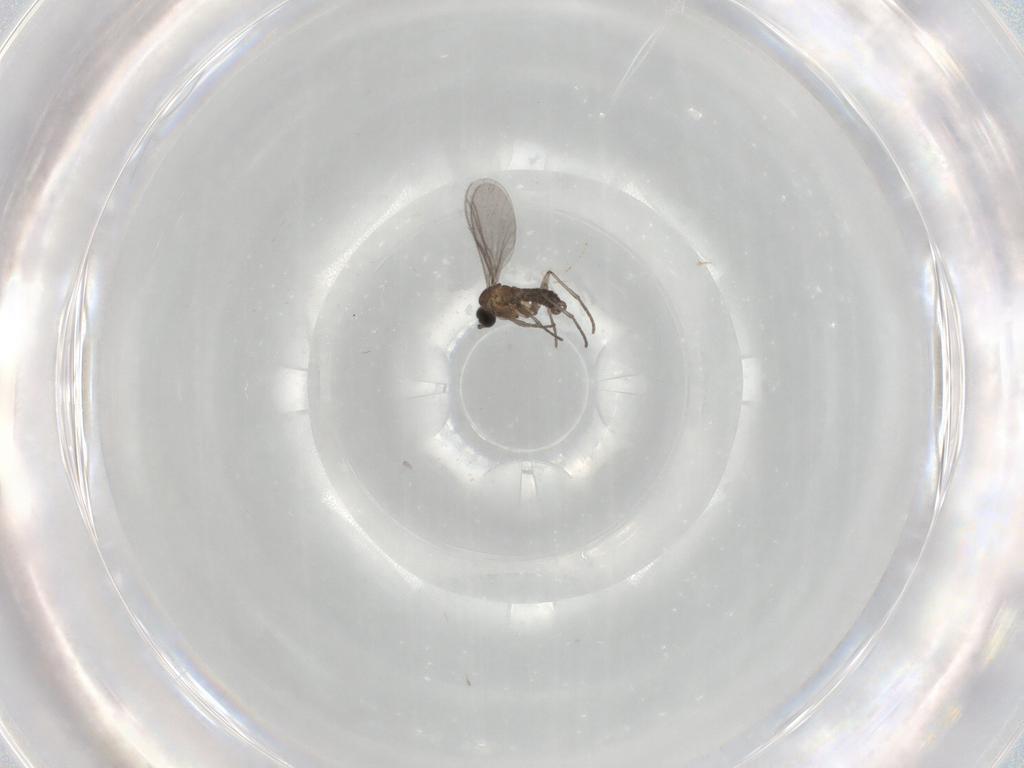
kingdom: Animalia
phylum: Arthropoda
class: Insecta
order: Diptera
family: Sciaridae
